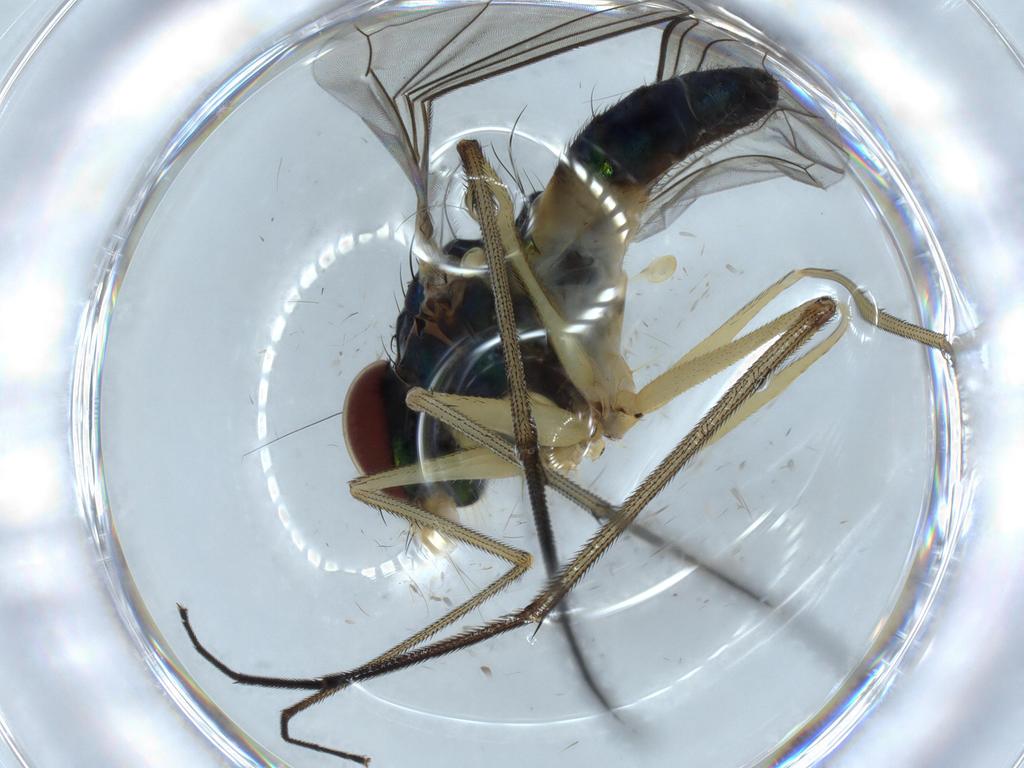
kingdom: Animalia
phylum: Arthropoda
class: Insecta
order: Diptera
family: Dolichopodidae
